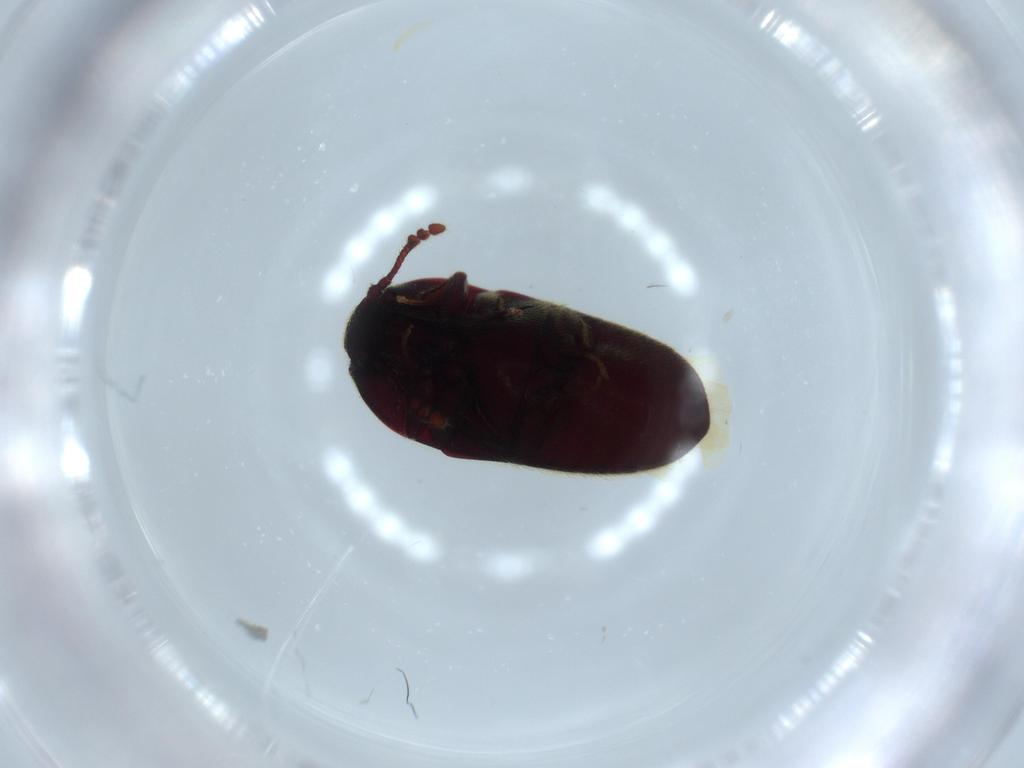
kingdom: Animalia
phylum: Arthropoda
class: Insecta
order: Coleoptera
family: Throscidae
